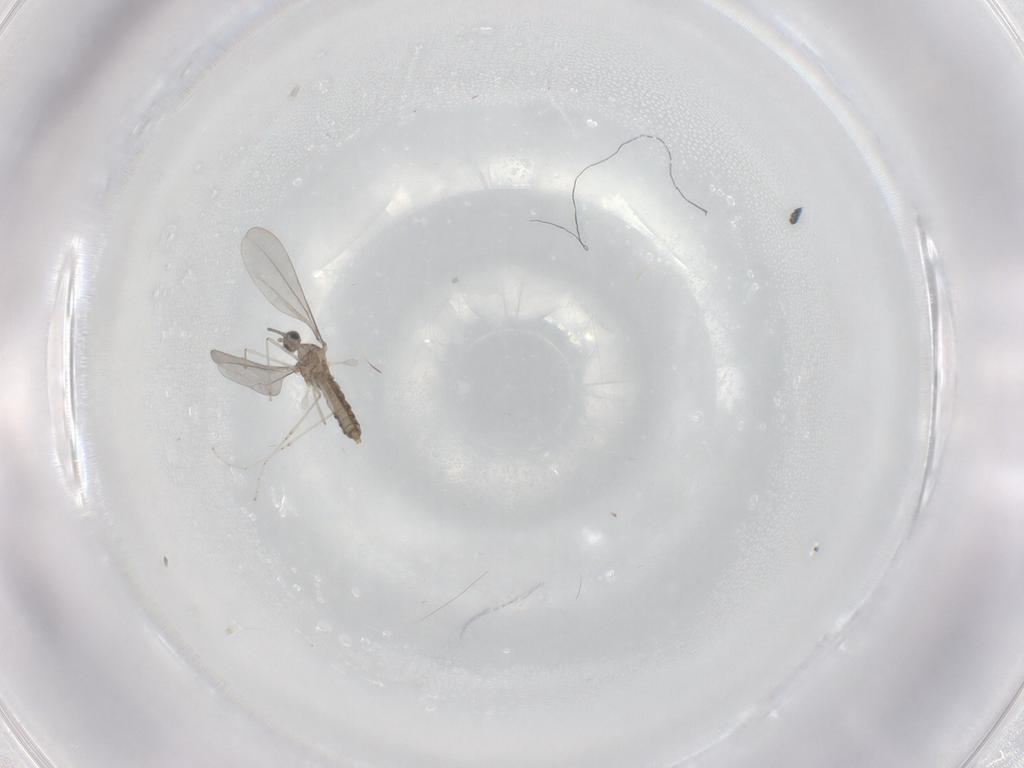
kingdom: Animalia
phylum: Arthropoda
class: Insecta
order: Diptera
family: Cecidomyiidae
